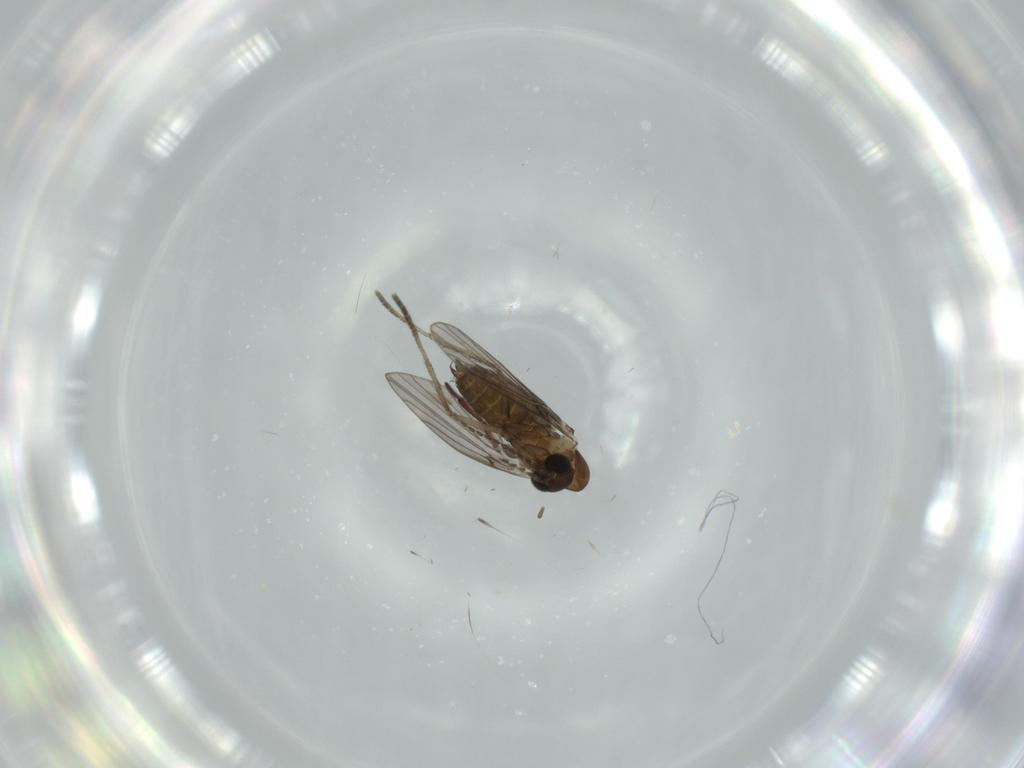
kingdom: Animalia
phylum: Arthropoda
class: Insecta
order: Diptera
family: Psychodidae
